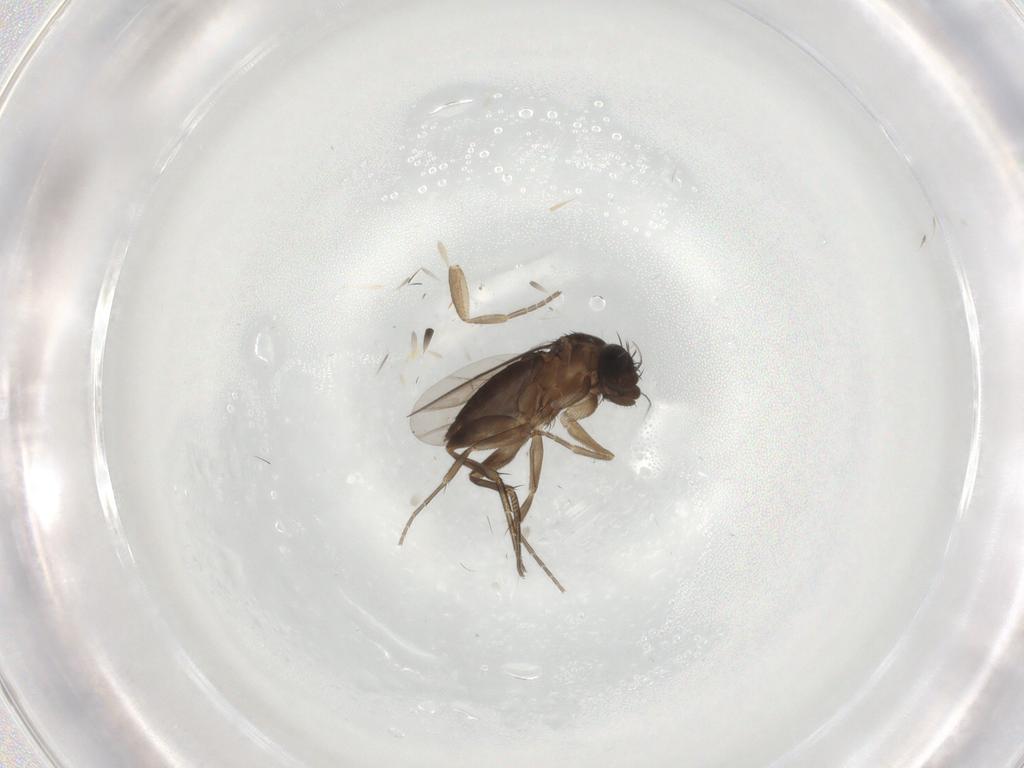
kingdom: Animalia
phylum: Arthropoda
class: Insecta
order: Diptera
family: Phoridae
